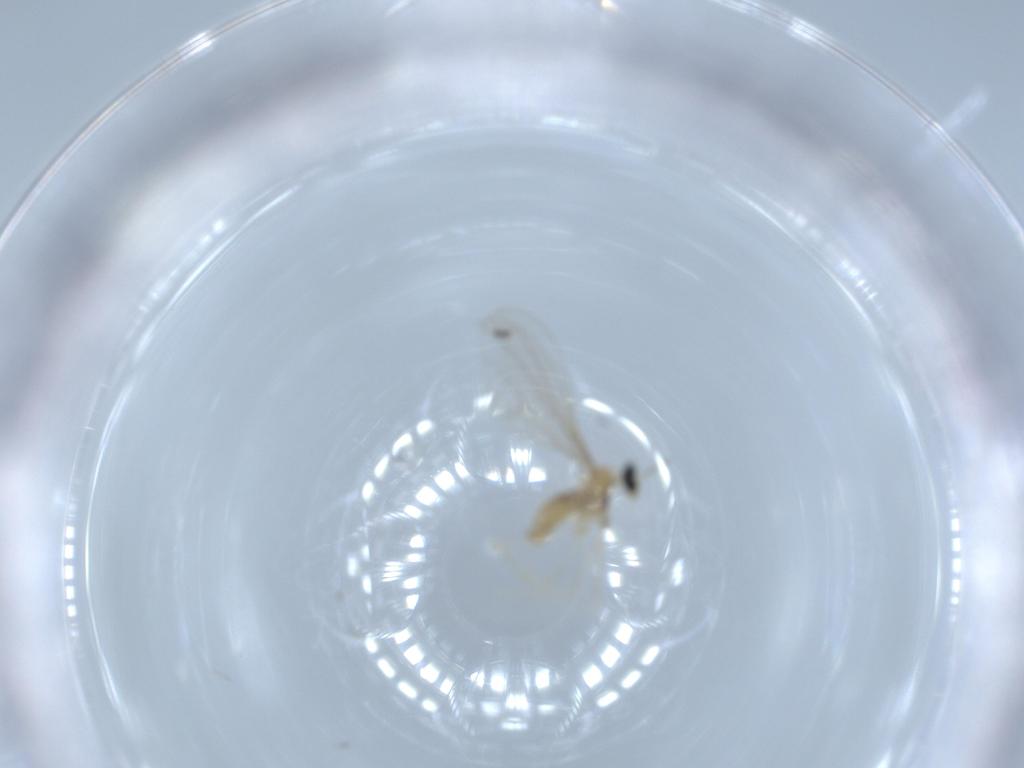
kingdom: Animalia
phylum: Arthropoda
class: Insecta
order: Diptera
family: Cecidomyiidae
